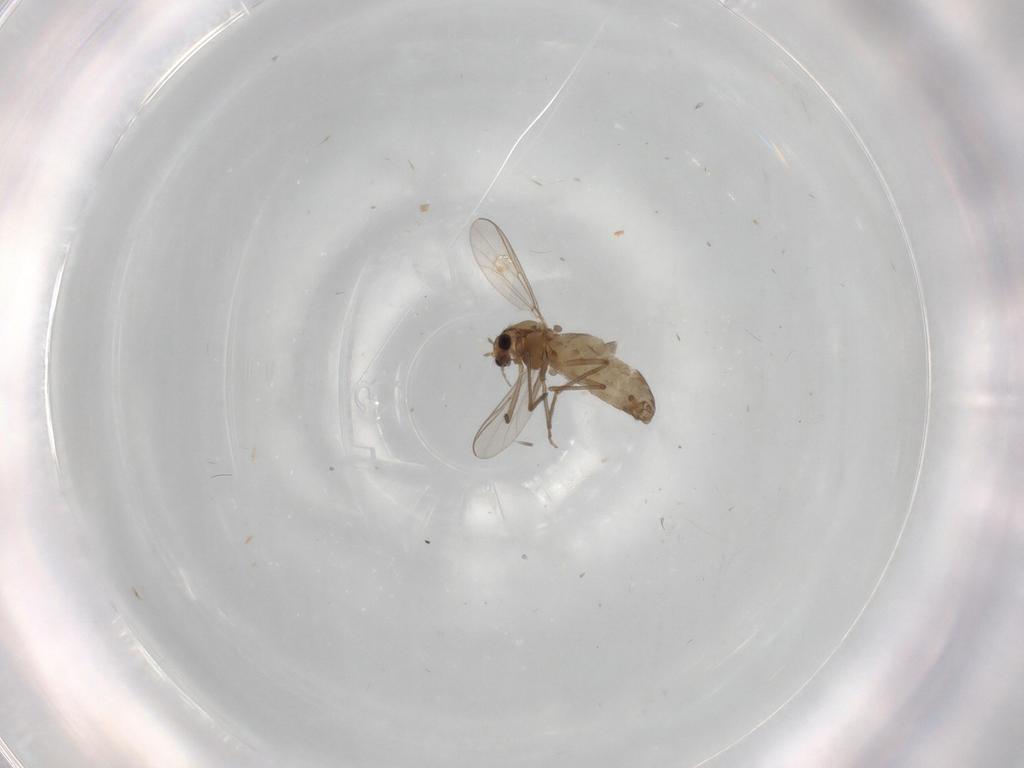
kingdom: Animalia
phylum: Arthropoda
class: Insecta
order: Diptera
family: Chironomidae
